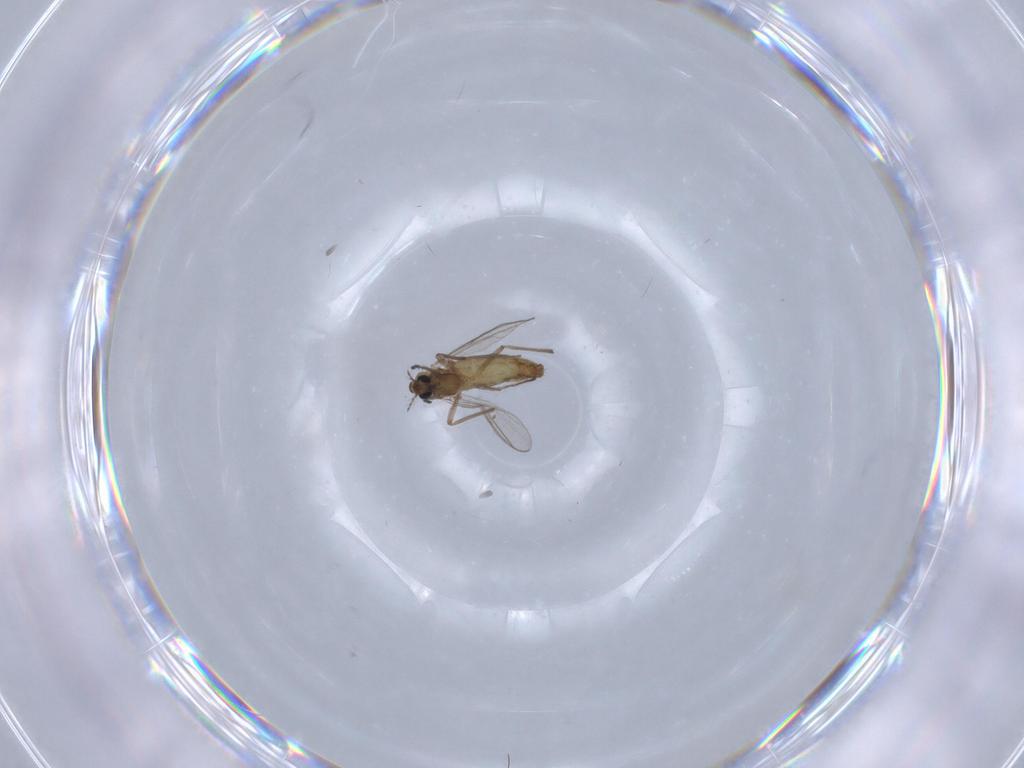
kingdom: Animalia
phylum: Arthropoda
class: Insecta
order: Diptera
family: Chironomidae
